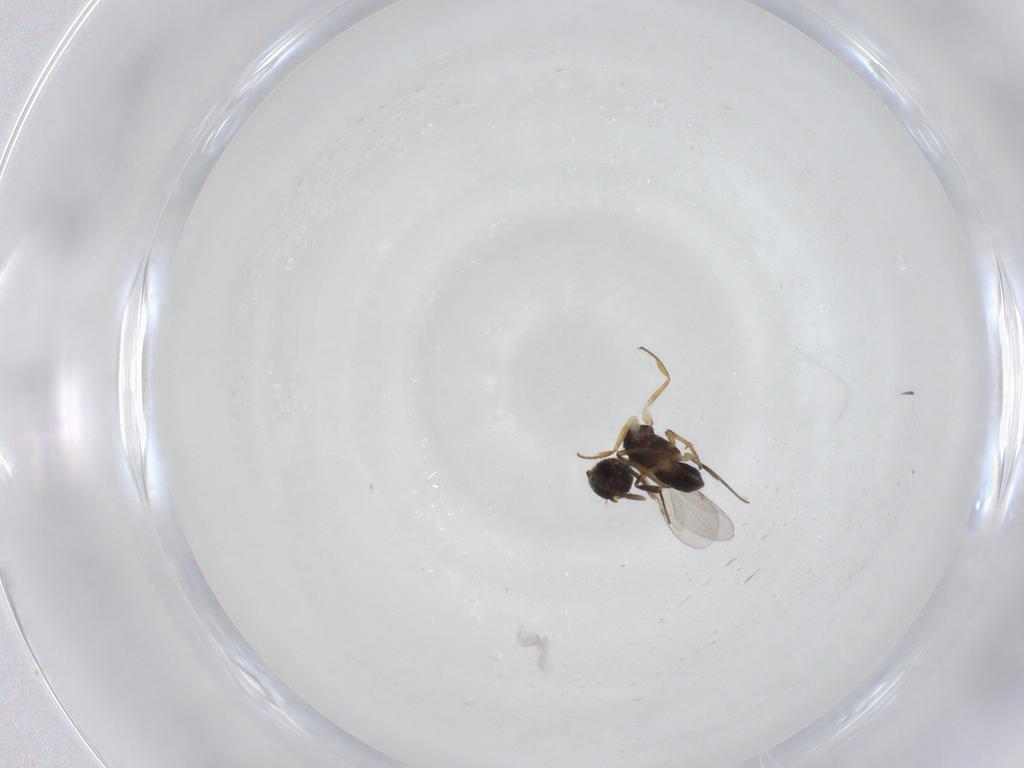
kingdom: Animalia
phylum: Arthropoda
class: Insecta
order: Hymenoptera
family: Encyrtidae
